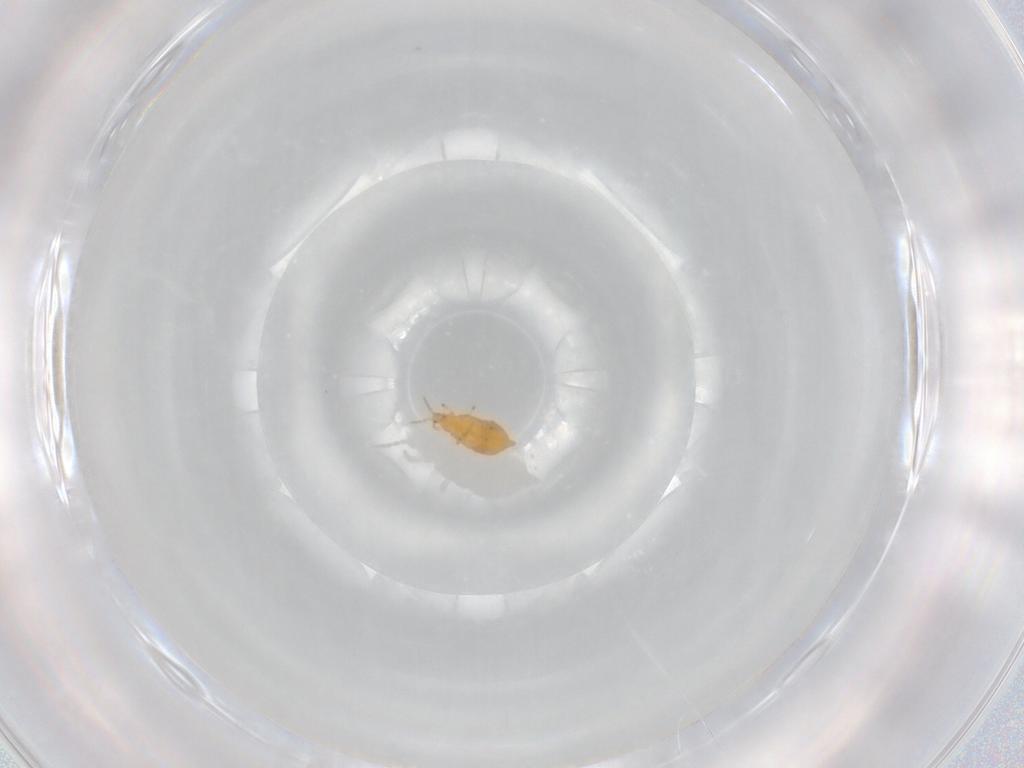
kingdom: Animalia
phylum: Arthropoda
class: Insecta
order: Thysanoptera
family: Heterothripidae
